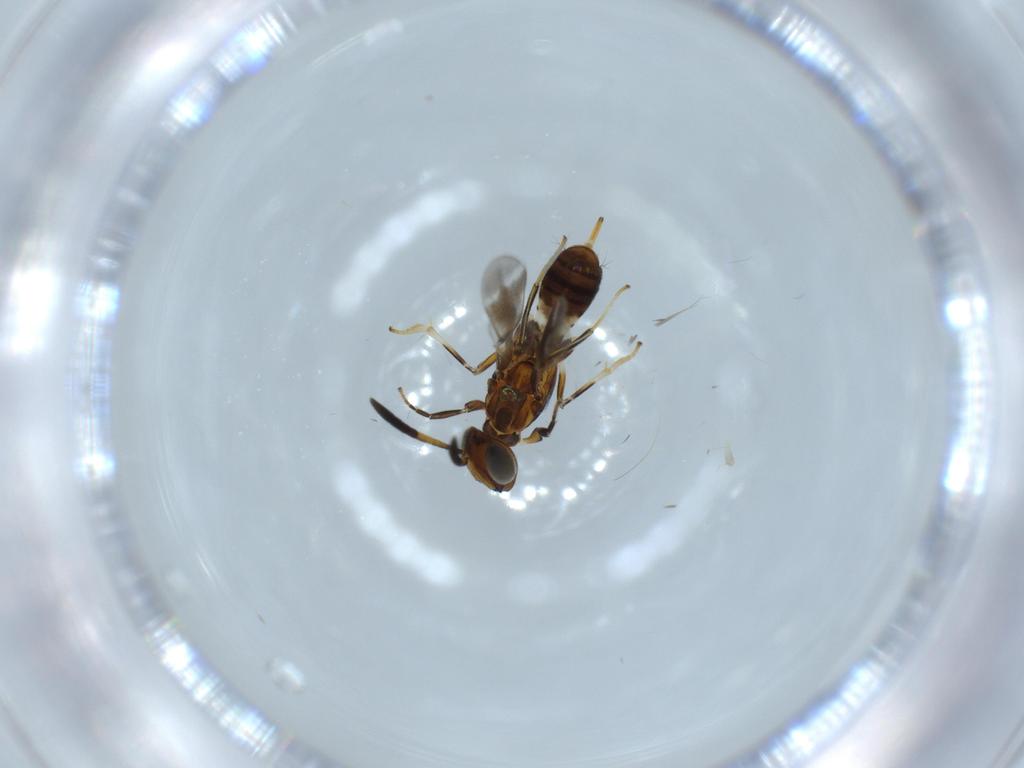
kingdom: Animalia
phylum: Arthropoda
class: Insecta
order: Hymenoptera
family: Eupelmidae
